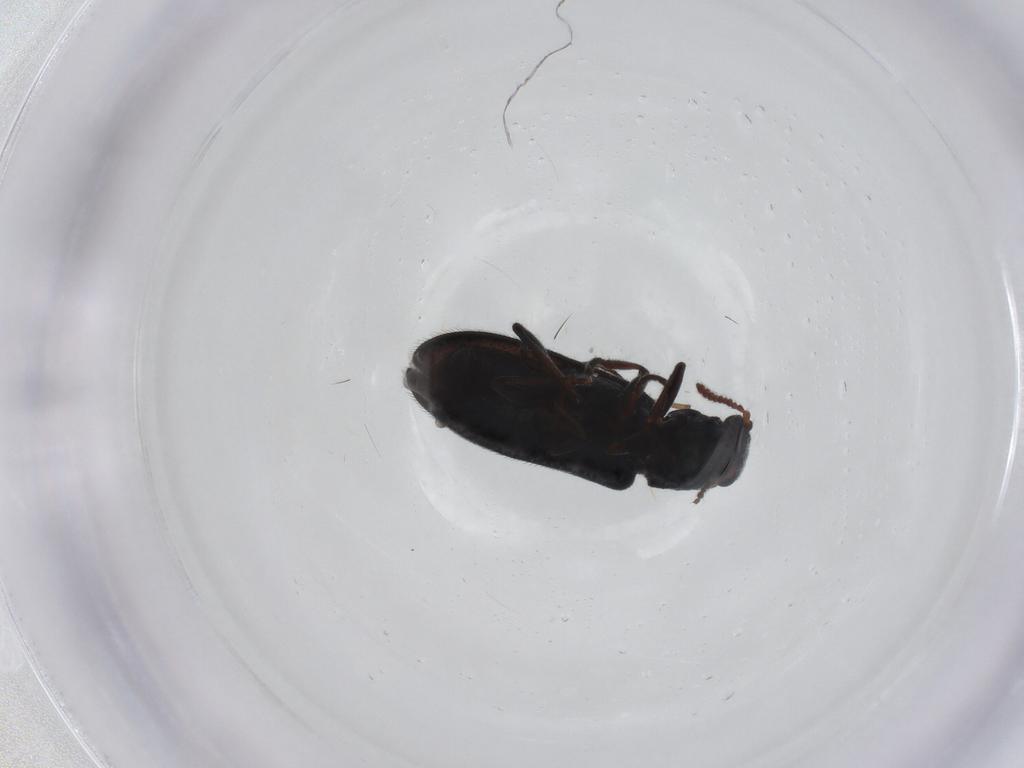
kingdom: Animalia
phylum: Arthropoda
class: Insecta
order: Coleoptera
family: Melyridae
